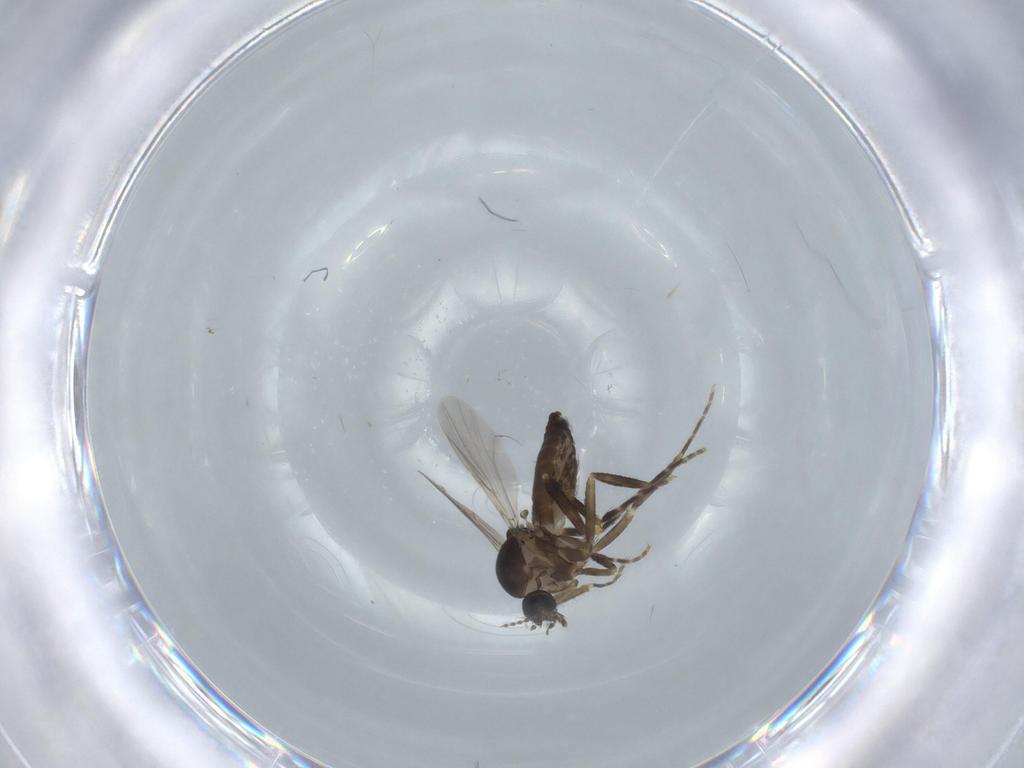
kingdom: Animalia
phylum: Arthropoda
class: Insecta
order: Diptera
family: Ceratopogonidae
